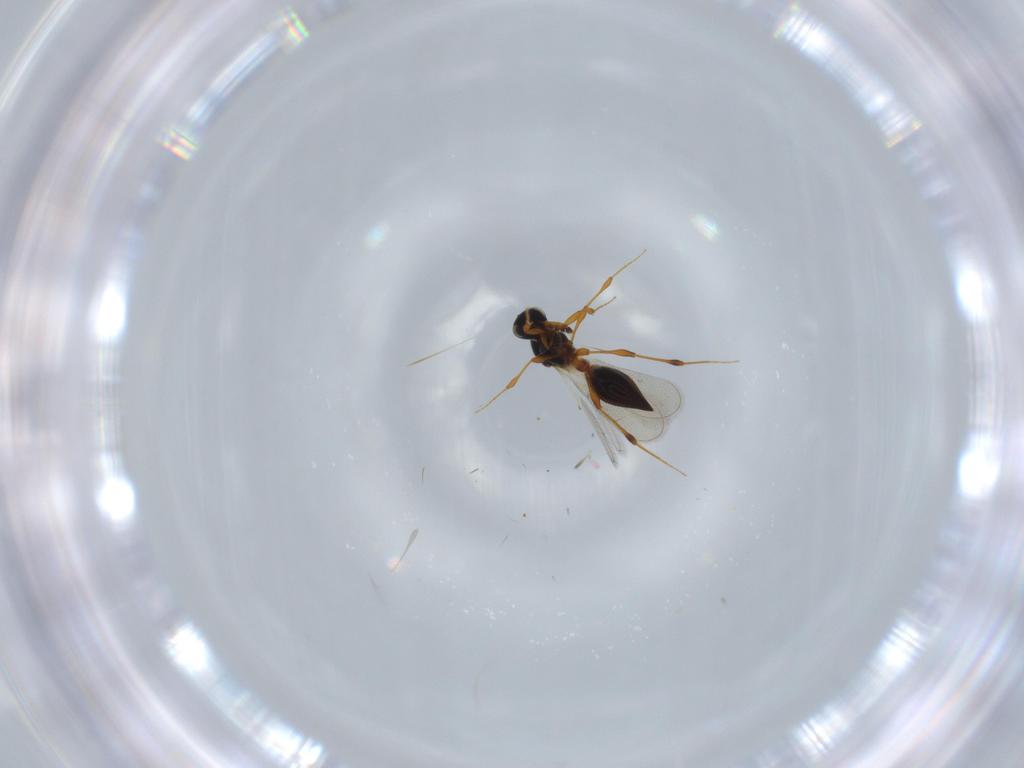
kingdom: Animalia
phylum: Arthropoda
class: Insecta
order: Hymenoptera
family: Platygastridae
